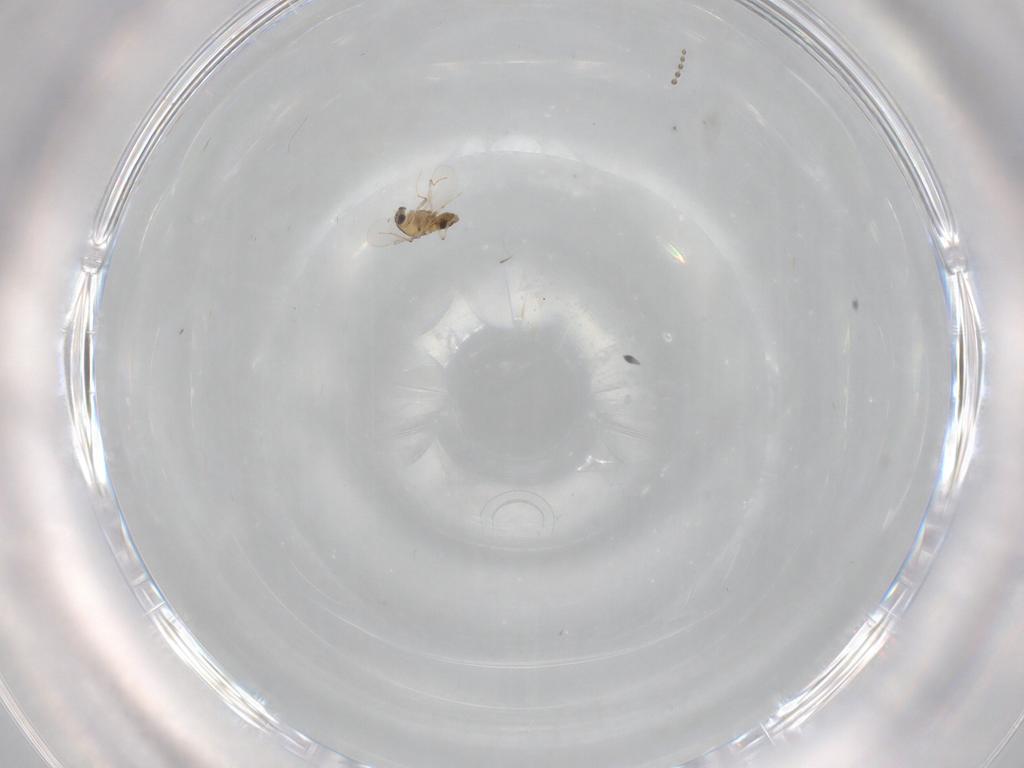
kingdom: Animalia
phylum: Arthropoda
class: Insecta
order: Diptera
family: Chironomidae
